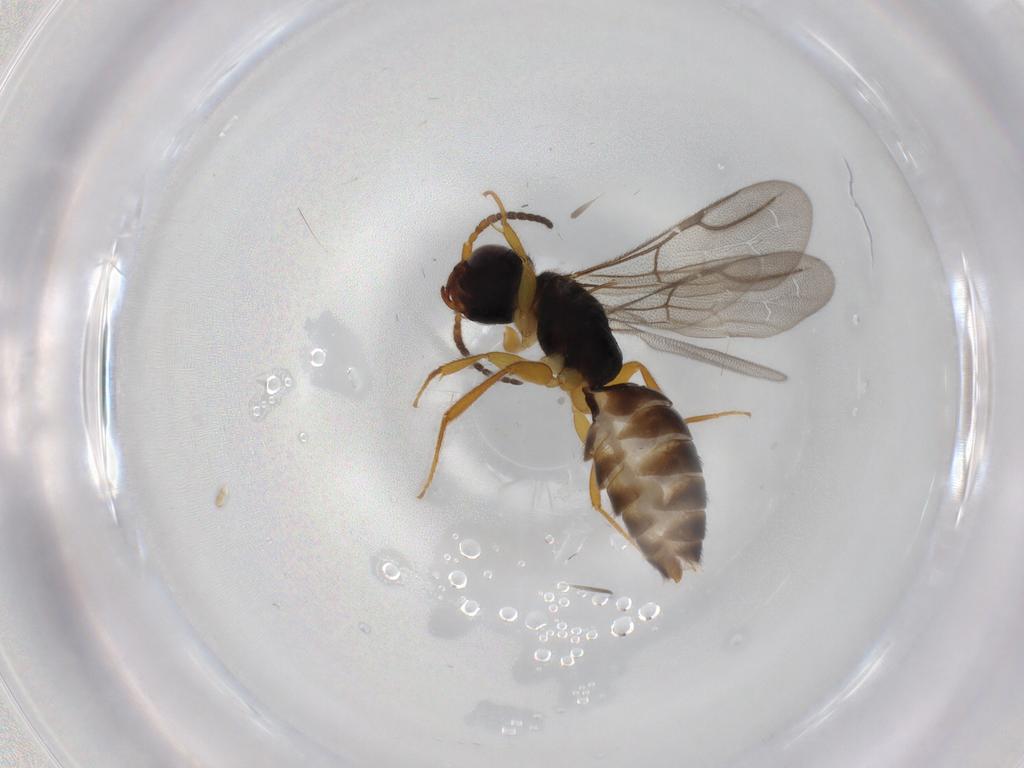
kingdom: Animalia
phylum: Arthropoda
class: Insecta
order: Hymenoptera
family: Formicidae
